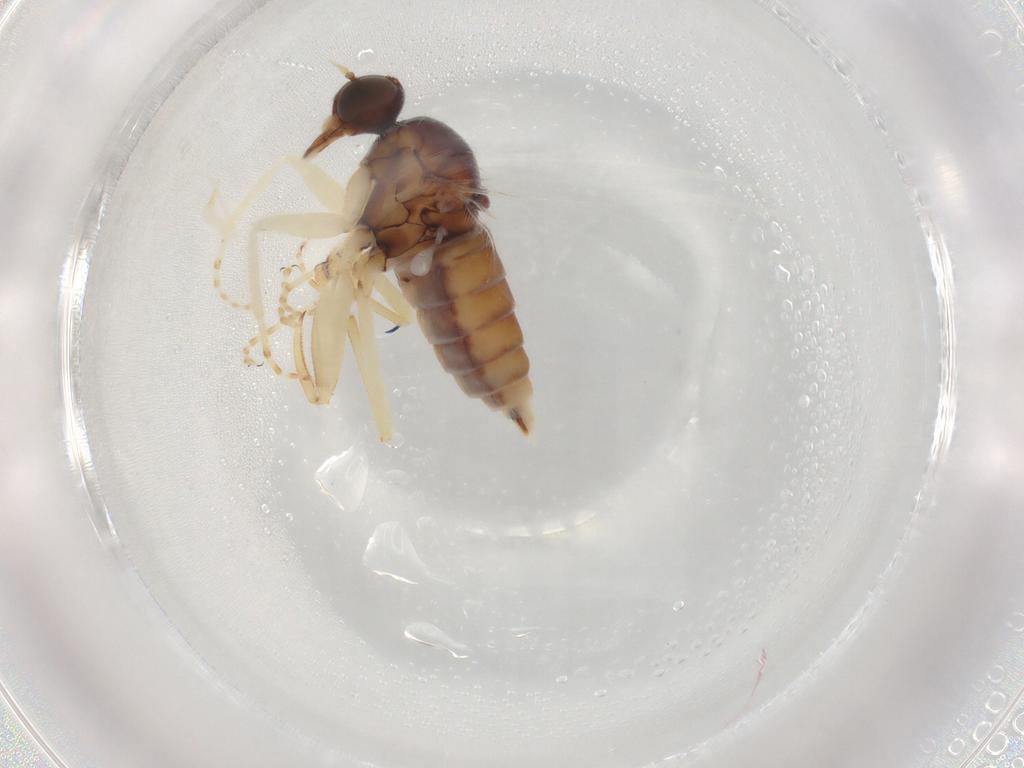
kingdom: Animalia
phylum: Arthropoda
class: Insecta
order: Diptera
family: Hybotidae
